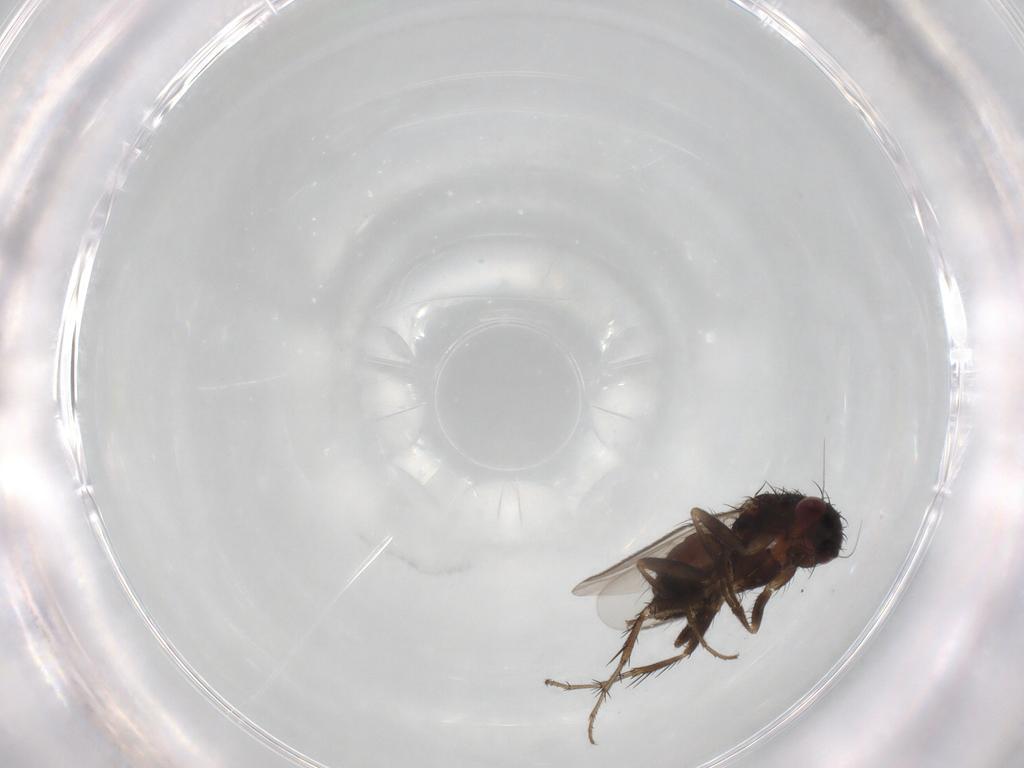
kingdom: Animalia
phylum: Arthropoda
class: Insecta
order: Diptera
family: Sphaeroceridae
